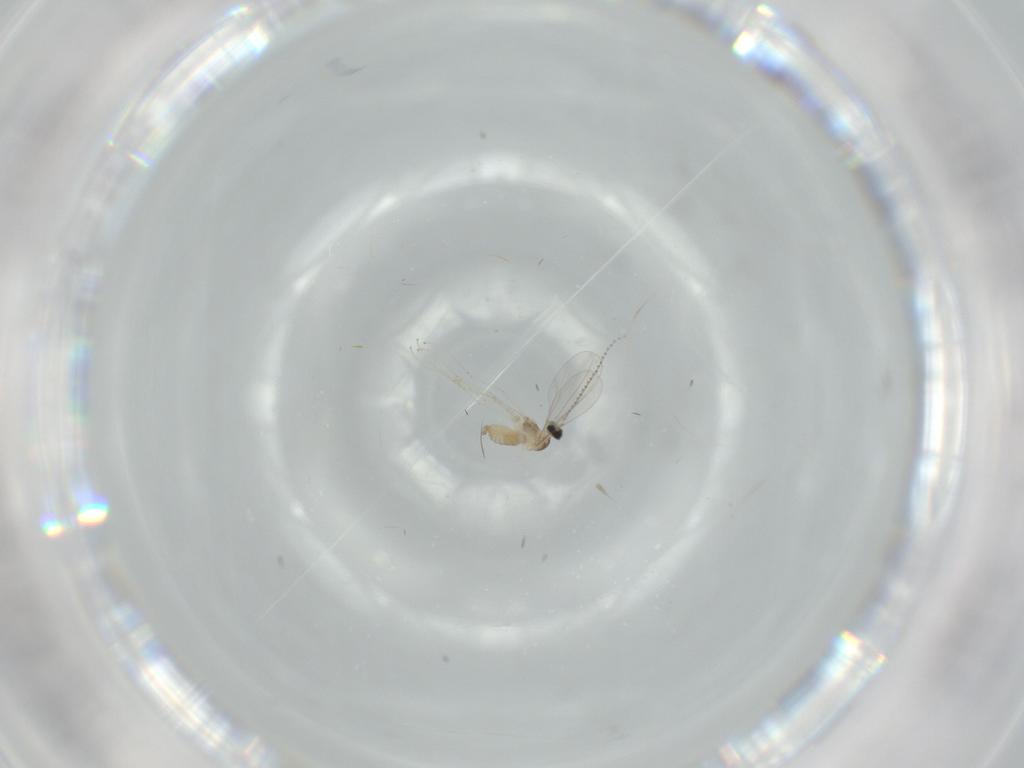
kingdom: Animalia
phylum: Arthropoda
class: Insecta
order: Diptera
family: Cecidomyiidae
